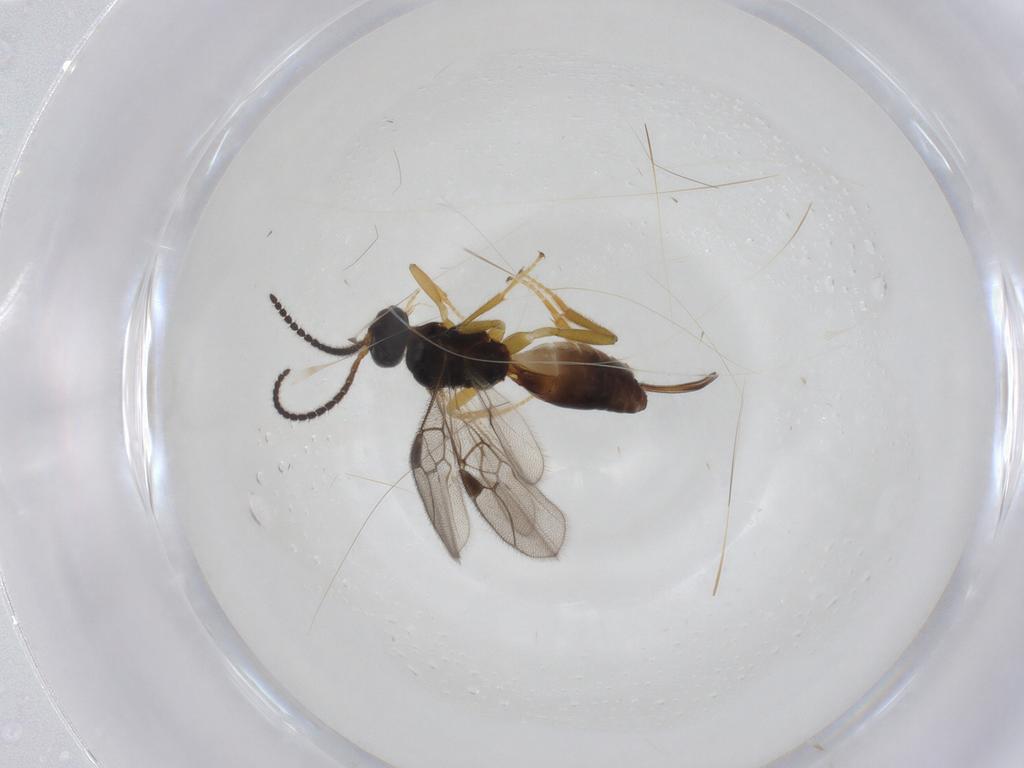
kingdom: Animalia
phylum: Arthropoda
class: Insecta
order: Hymenoptera
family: Braconidae
